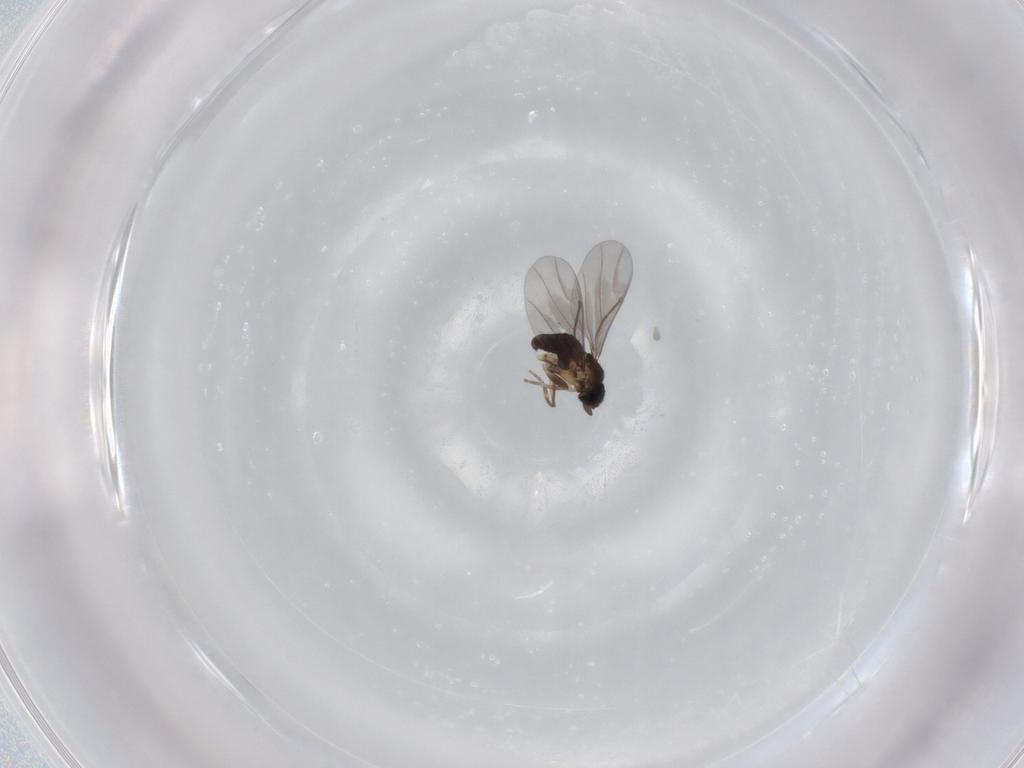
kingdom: Animalia
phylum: Arthropoda
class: Insecta
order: Diptera
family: Phoridae
